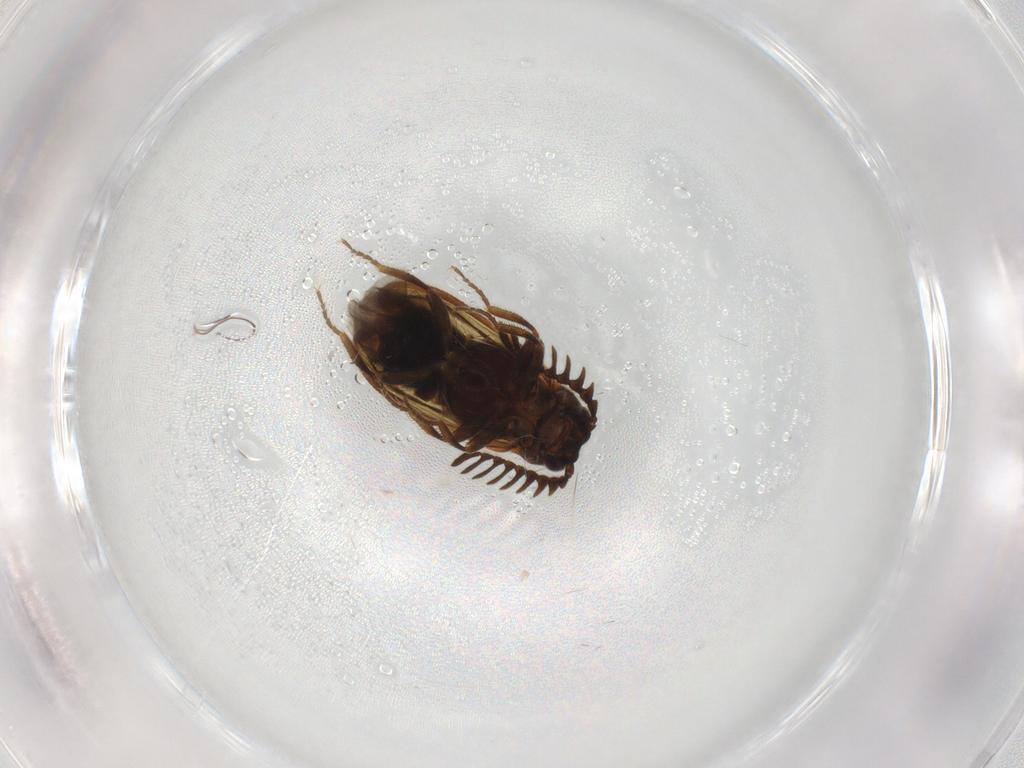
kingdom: Animalia
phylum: Arthropoda
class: Insecta
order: Coleoptera
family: Elateridae
